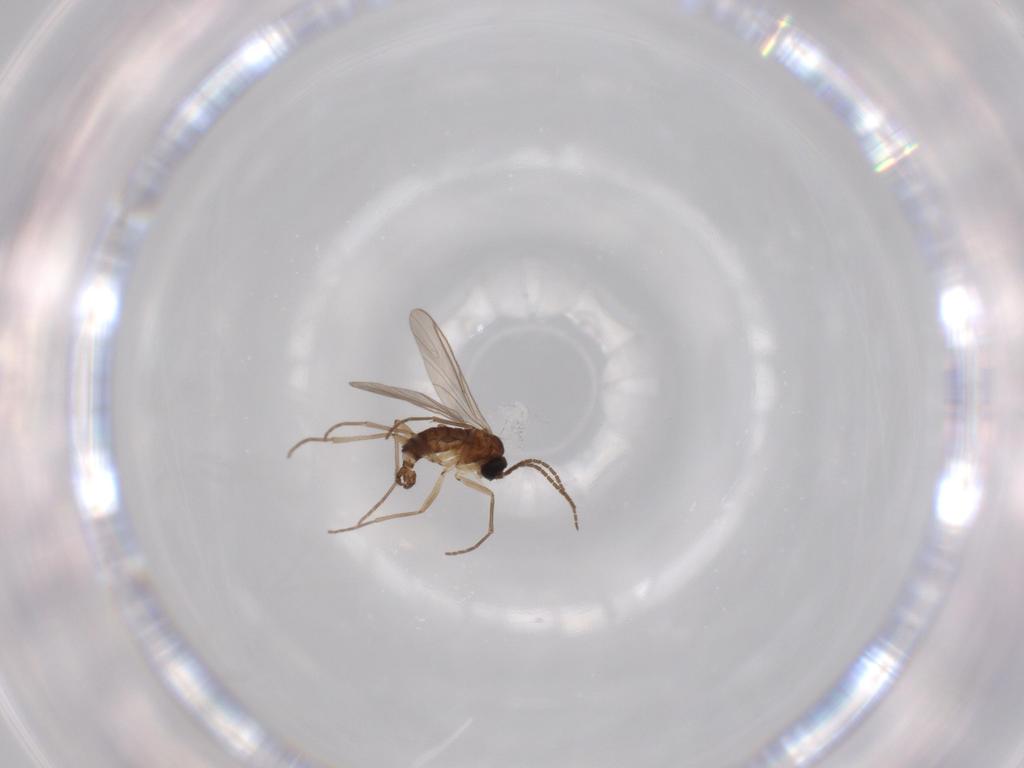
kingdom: Animalia
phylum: Arthropoda
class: Insecta
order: Diptera
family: Sciaridae
